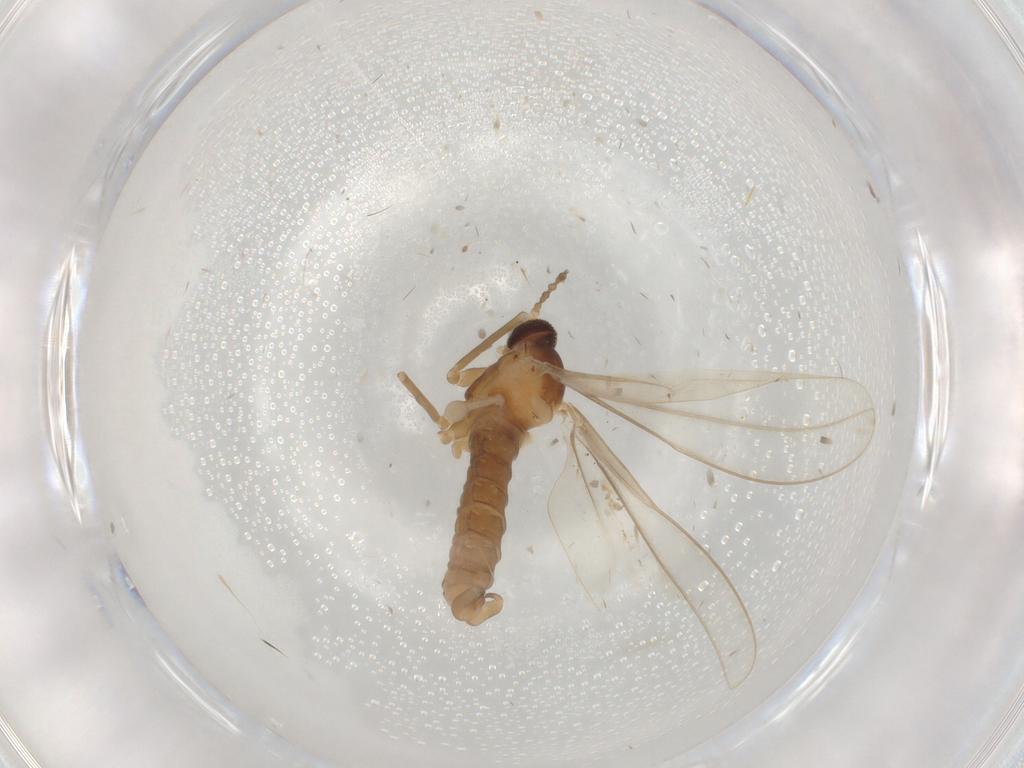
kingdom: Animalia
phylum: Arthropoda
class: Insecta
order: Diptera
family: Cecidomyiidae
